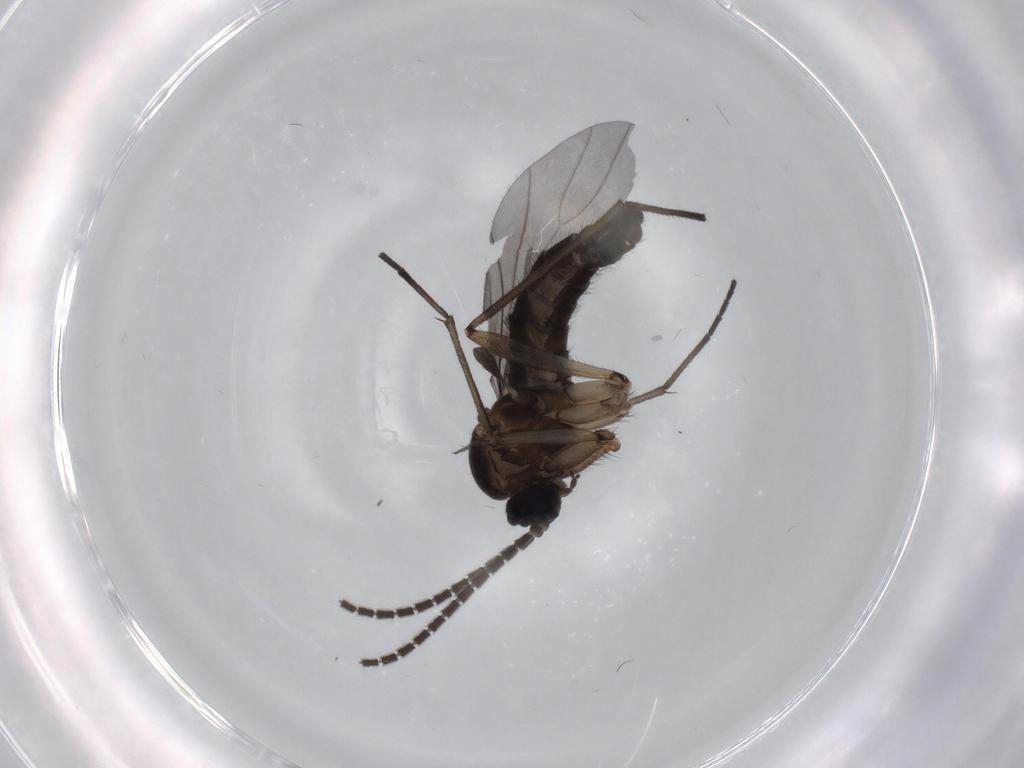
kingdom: Animalia
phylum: Arthropoda
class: Insecta
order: Diptera
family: Sciaridae
